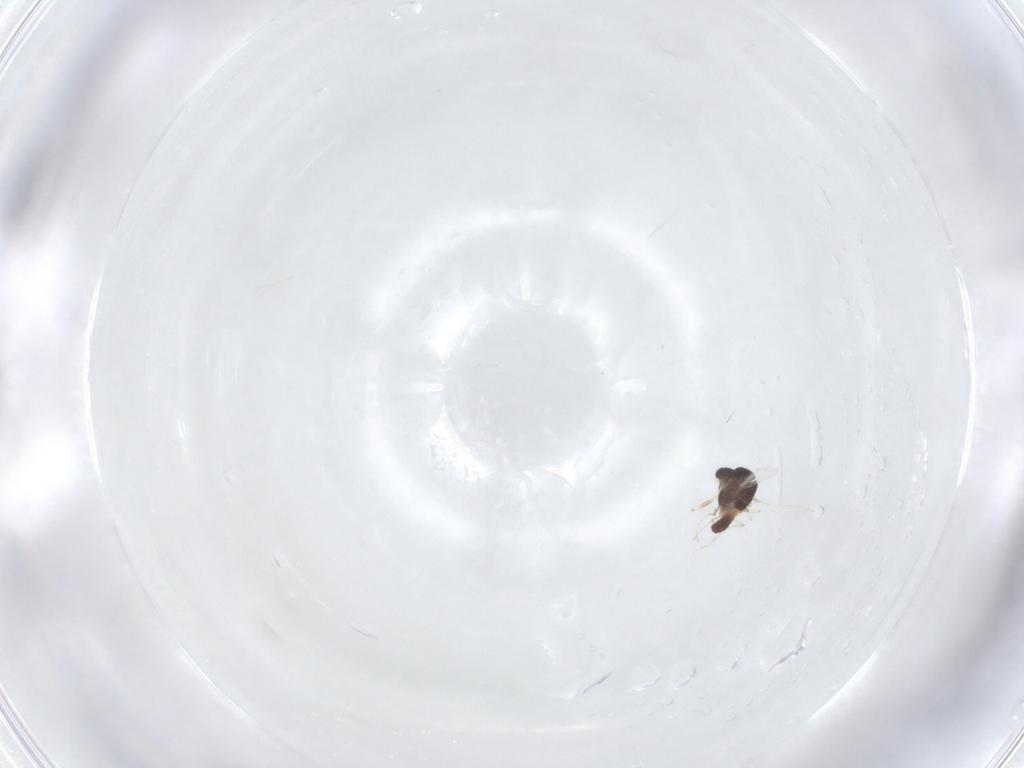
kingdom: Animalia
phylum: Arthropoda
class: Insecta
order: Diptera
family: Chironomidae
